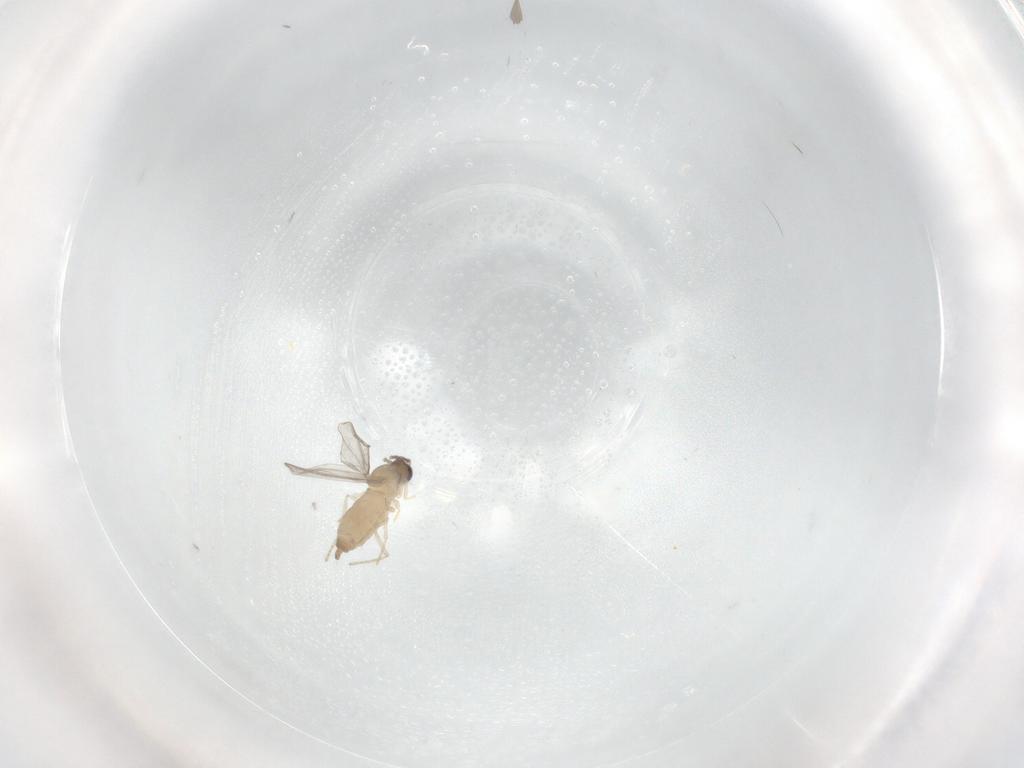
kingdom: Animalia
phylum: Arthropoda
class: Insecta
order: Diptera
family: Cecidomyiidae
